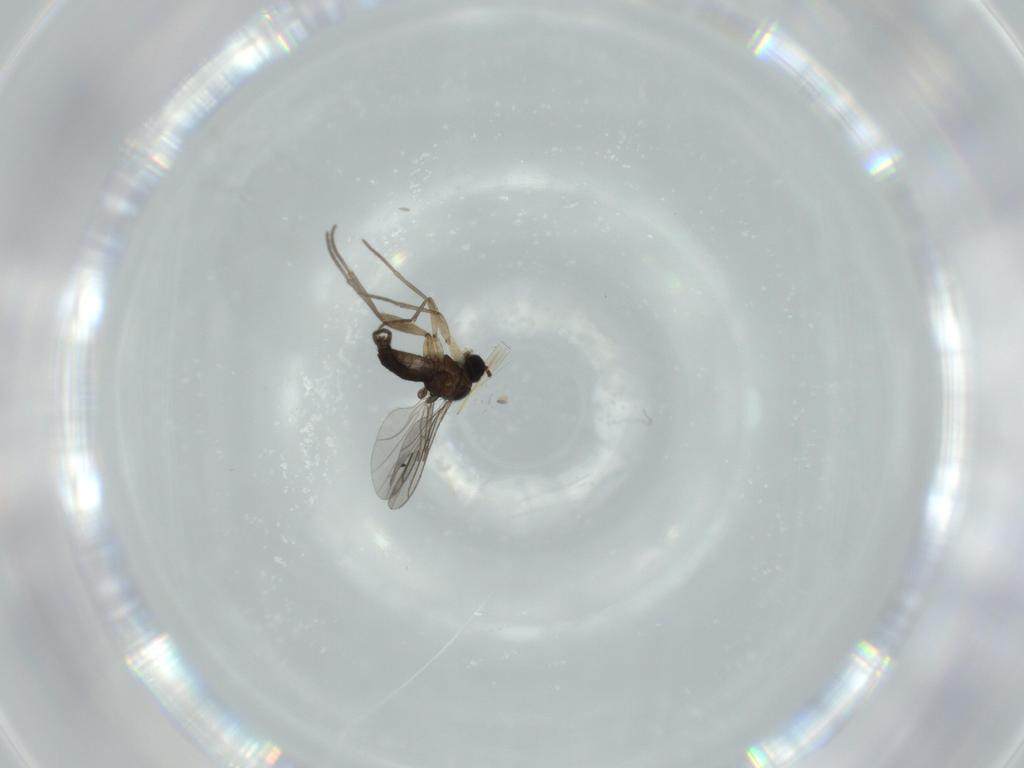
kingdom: Animalia
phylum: Arthropoda
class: Insecta
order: Diptera
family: Sciaridae
